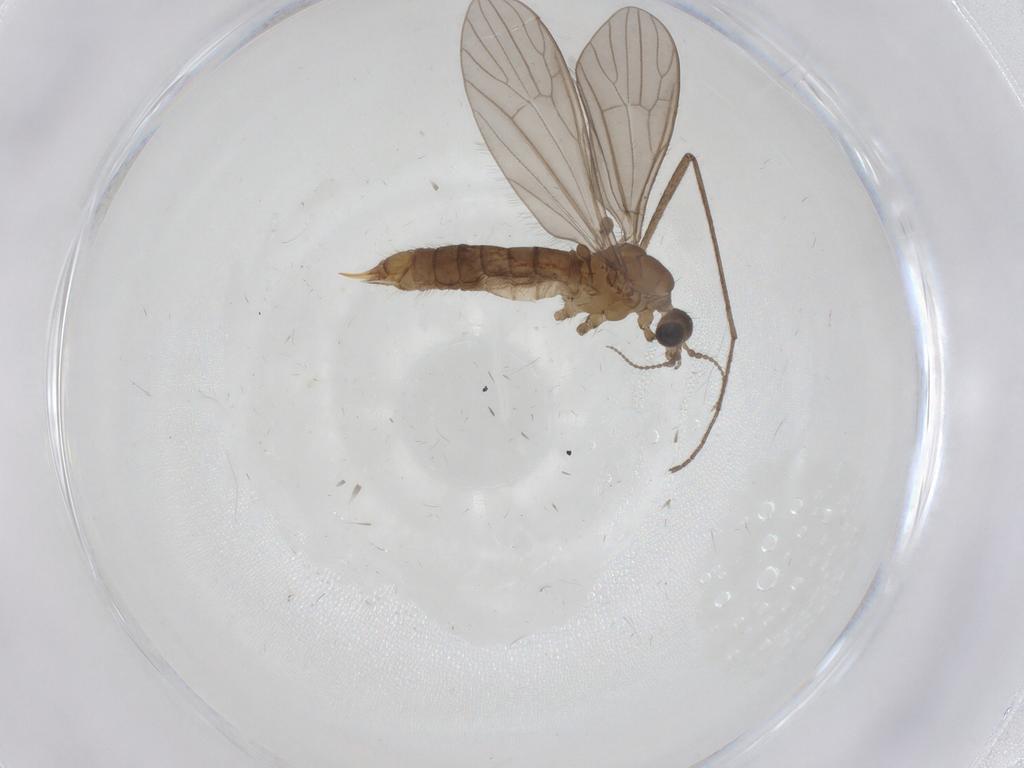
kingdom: Animalia
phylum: Arthropoda
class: Insecta
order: Diptera
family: Limoniidae
